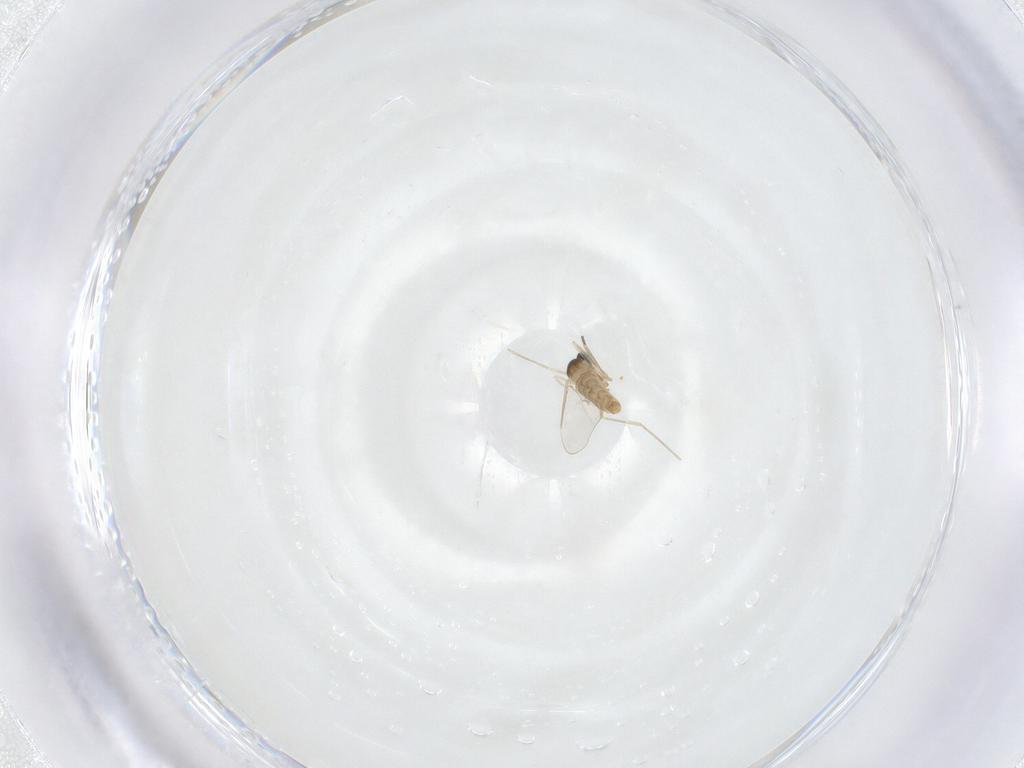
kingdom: Animalia
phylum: Arthropoda
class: Insecta
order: Diptera
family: Cecidomyiidae
